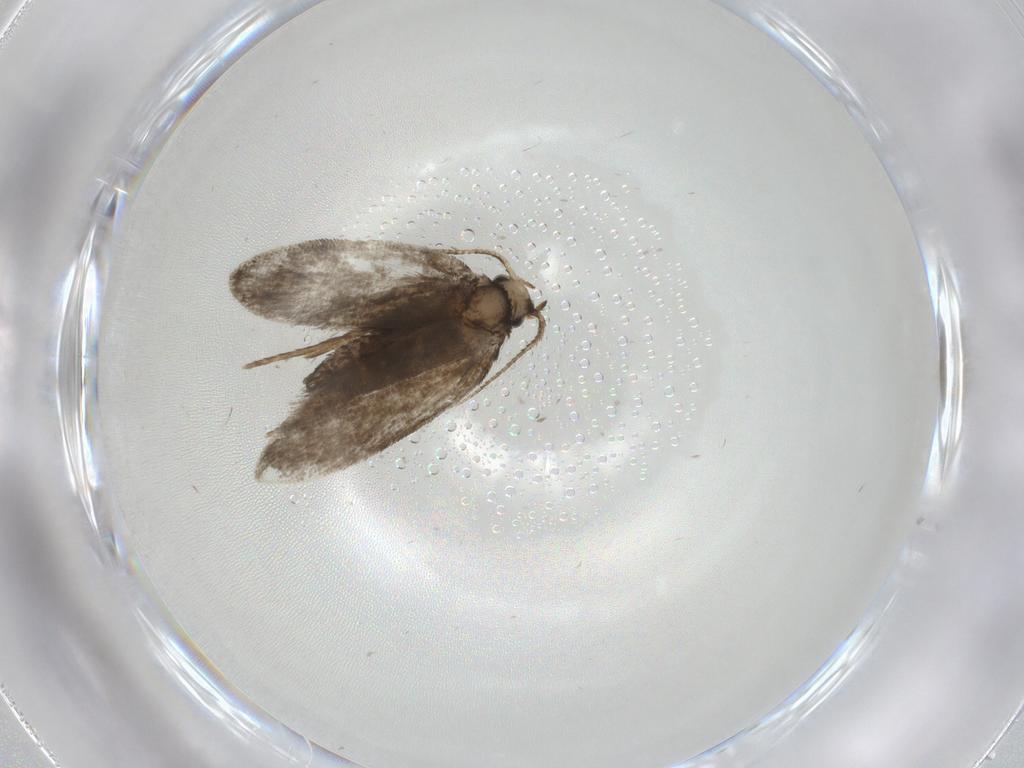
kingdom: Animalia
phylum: Arthropoda
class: Insecta
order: Lepidoptera
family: Psychidae
